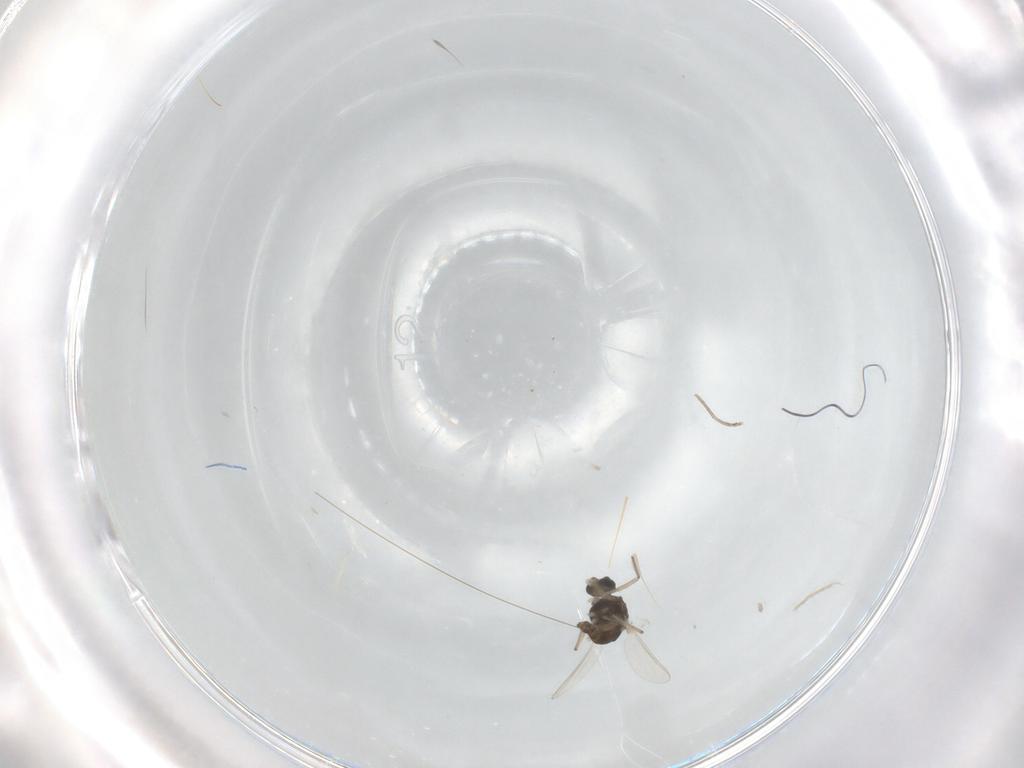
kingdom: Animalia
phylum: Arthropoda
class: Insecta
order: Diptera
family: Chironomidae
